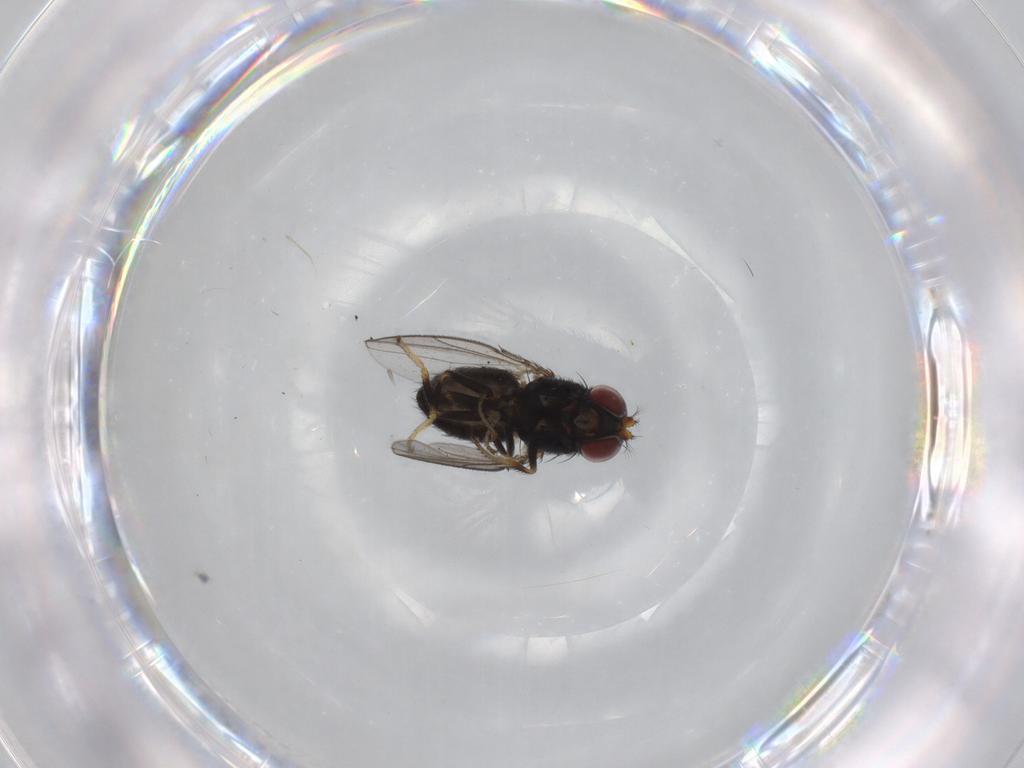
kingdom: Animalia
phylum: Arthropoda
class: Insecta
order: Diptera
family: Ephydridae
